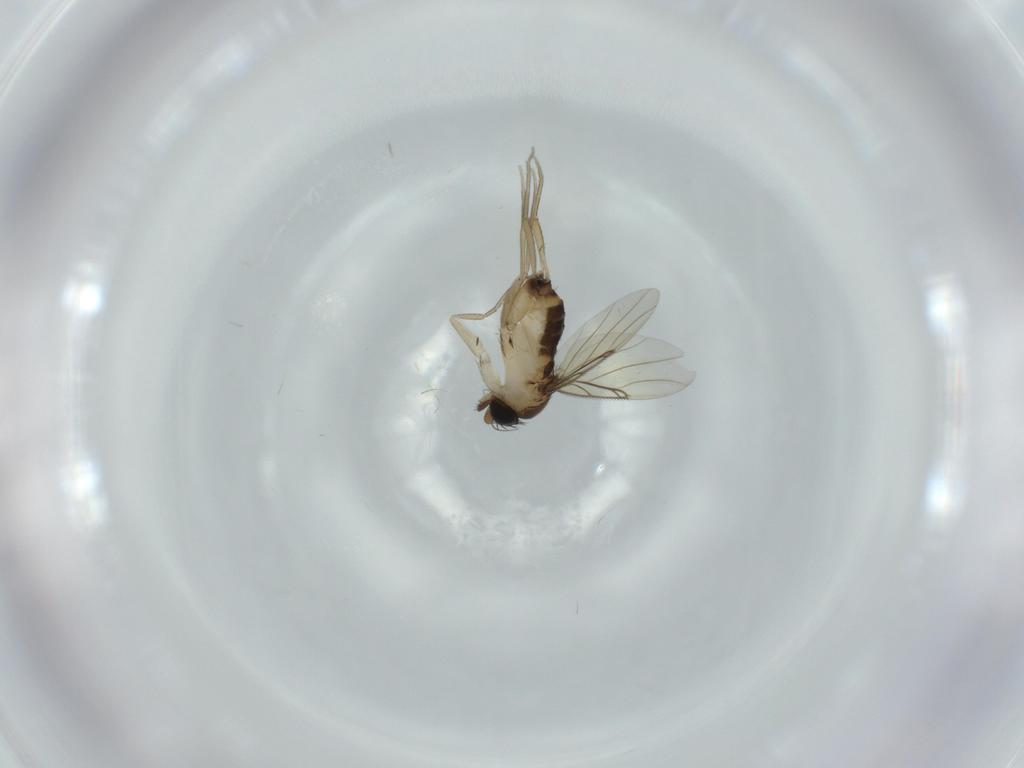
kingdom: Animalia
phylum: Arthropoda
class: Insecta
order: Diptera
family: Phoridae
